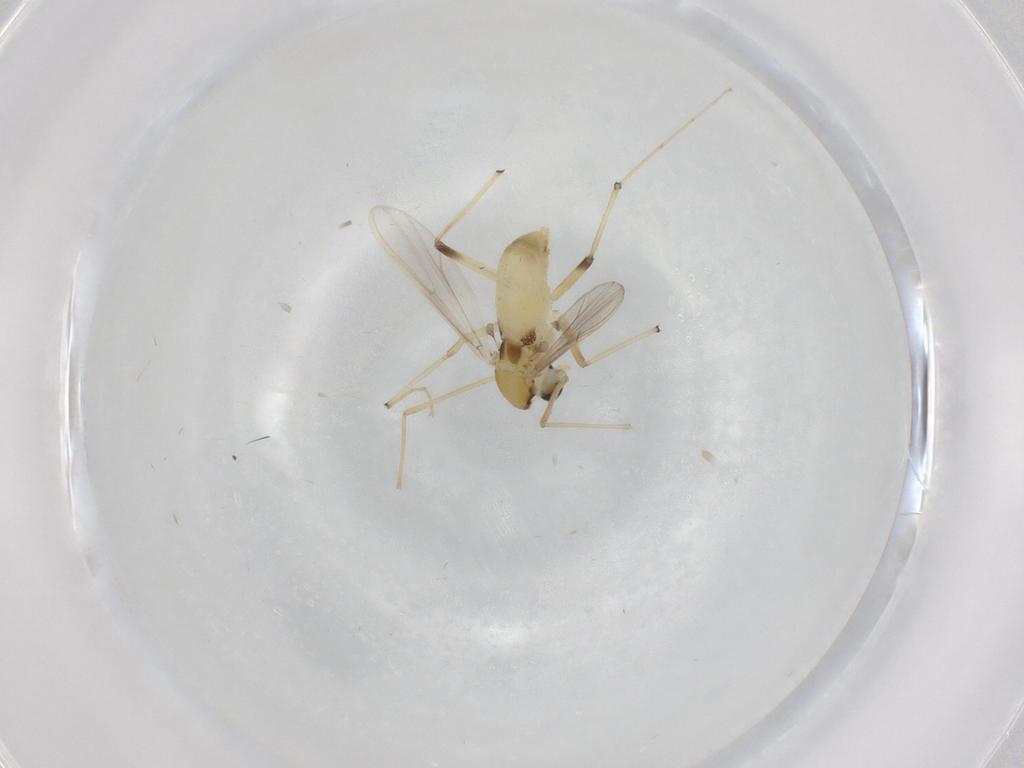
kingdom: Animalia
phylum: Arthropoda
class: Insecta
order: Diptera
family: Chironomidae
